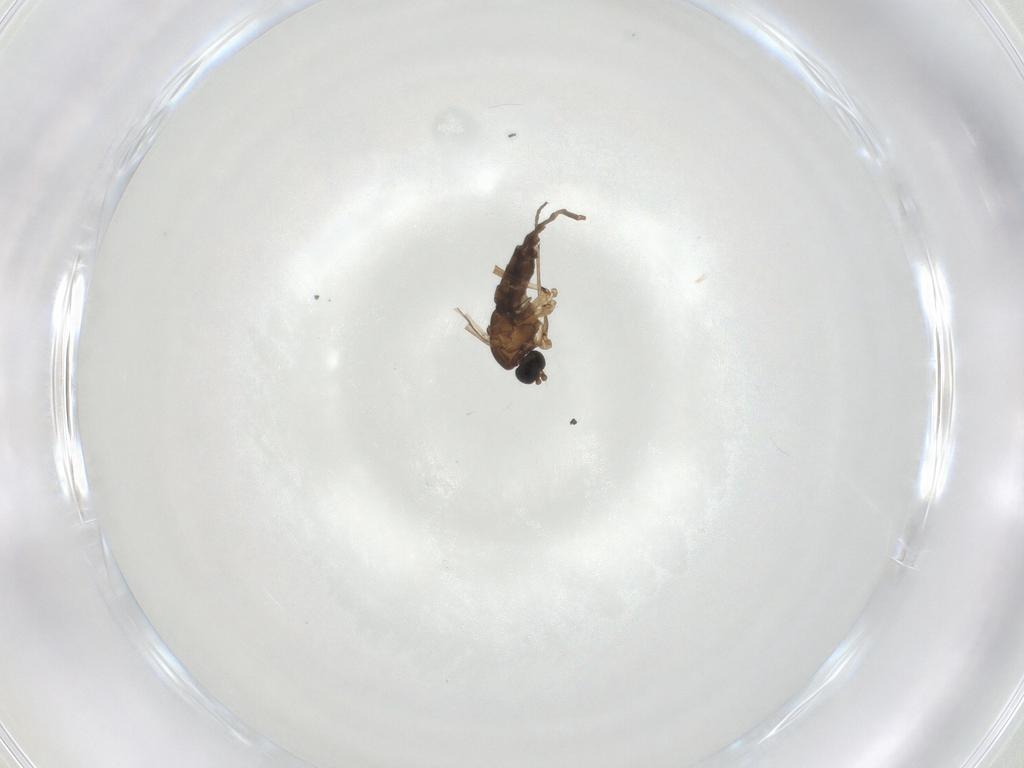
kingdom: Animalia
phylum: Arthropoda
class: Insecta
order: Diptera
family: Sciaridae
